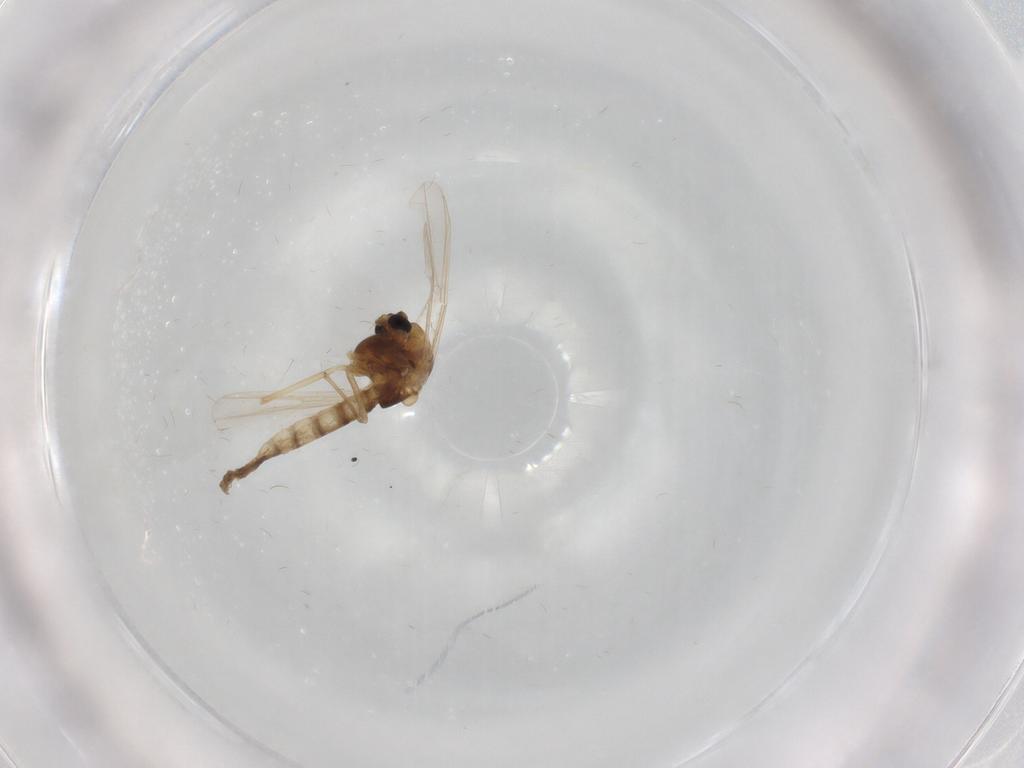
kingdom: Animalia
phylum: Arthropoda
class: Insecta
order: Diptera
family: Chironomidae
